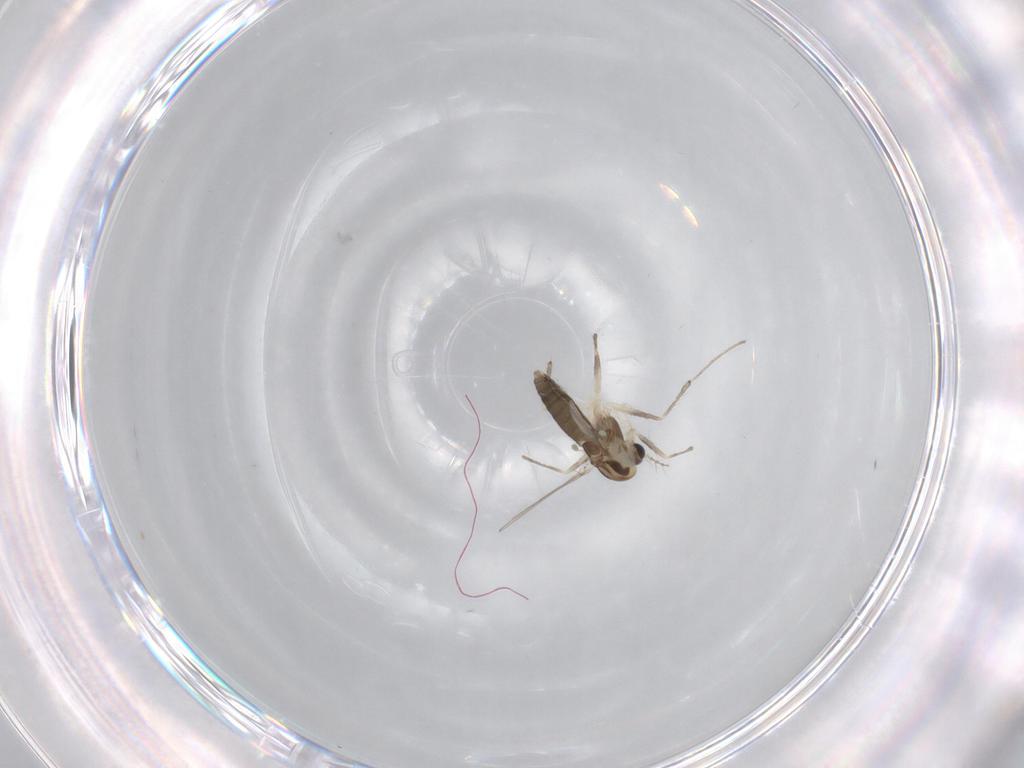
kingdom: Animalia
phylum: Arthropoda
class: Insecta
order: Diptera
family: Chironomidae
